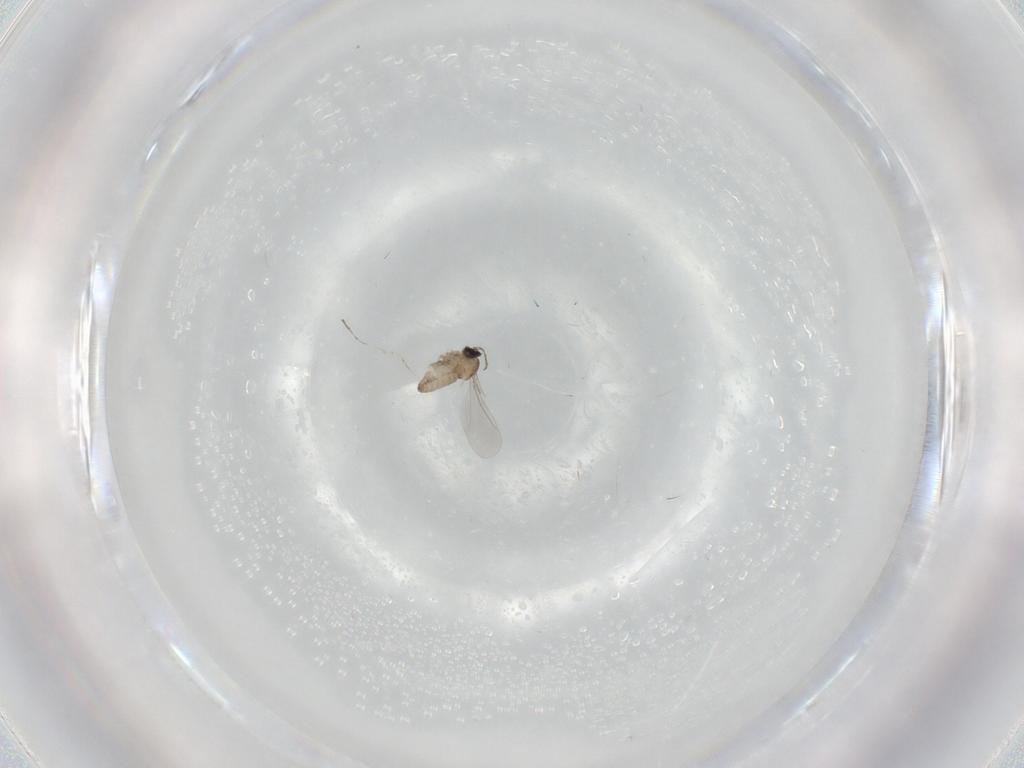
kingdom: Animalia
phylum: Arthropoda
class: Insecta
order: Diptera
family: Cecidomyiidae
